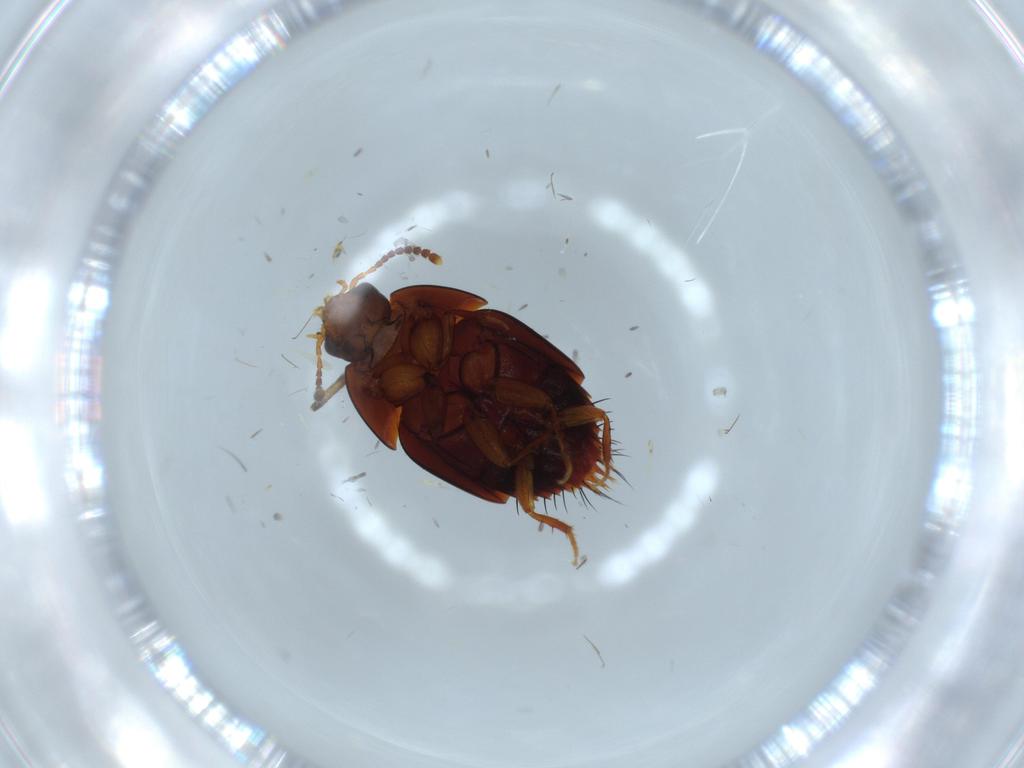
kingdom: Animalia
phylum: Arthropoda
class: Insecta
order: Coleoptera
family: Staphylinidae
